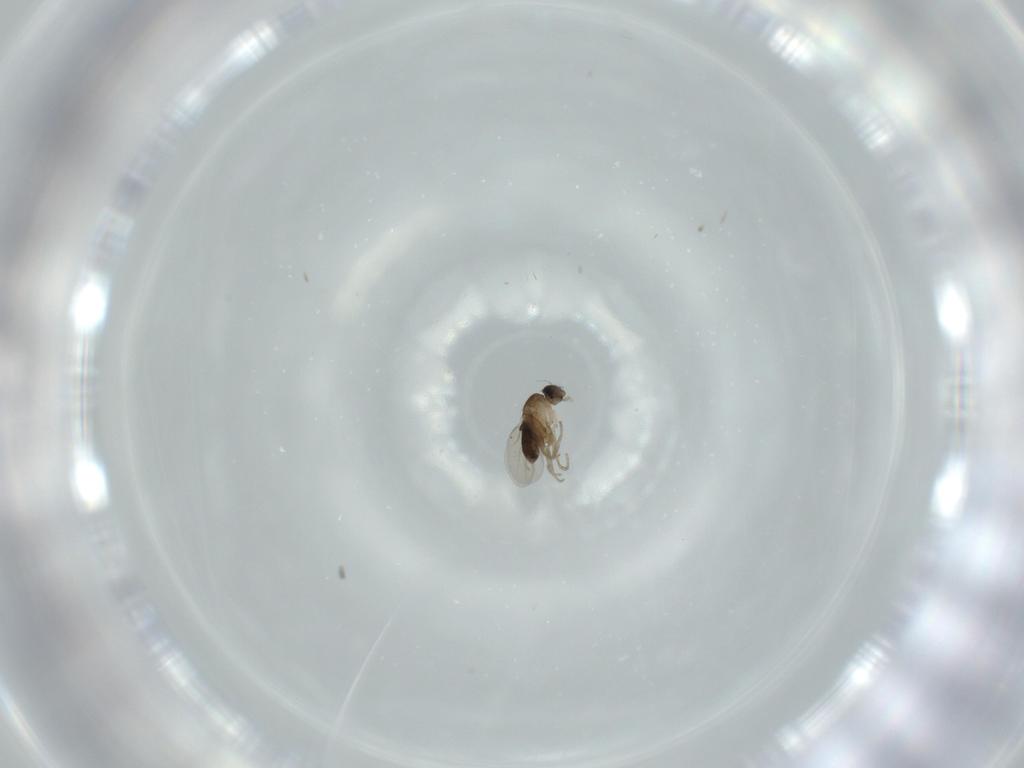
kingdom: Animalia
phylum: Arthropoda
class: Insecta
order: Diptera
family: Phoridae
